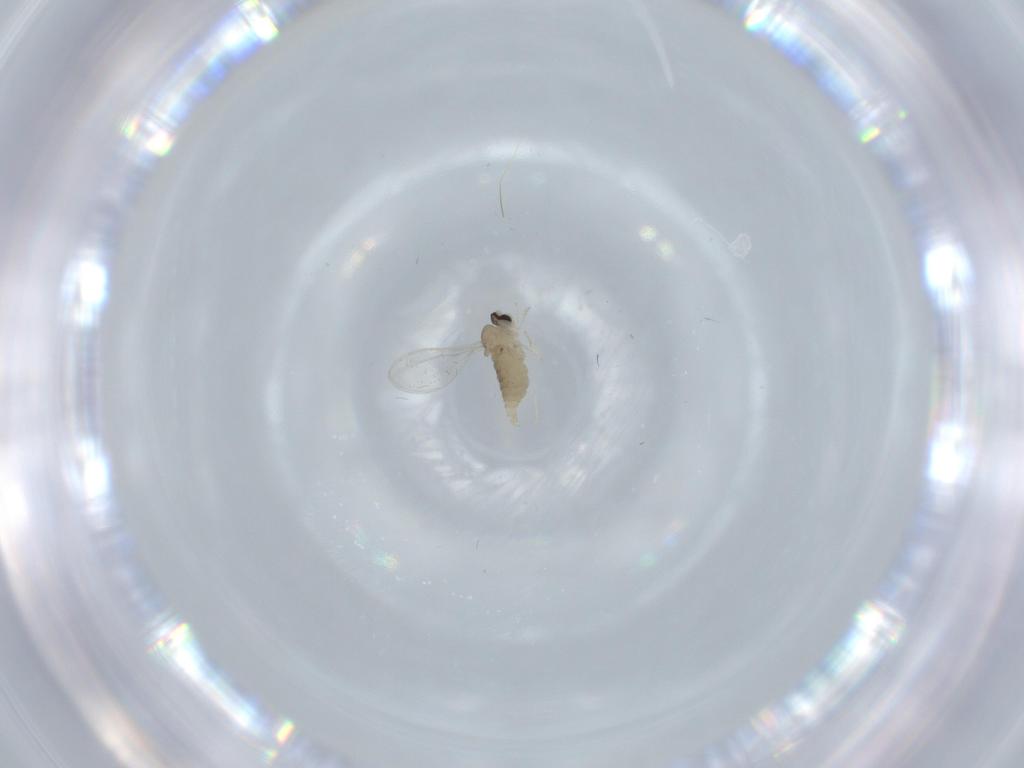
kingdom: Animalia
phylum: Arthropoda
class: Insecta
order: Diptera
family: Cecidomyiidae
